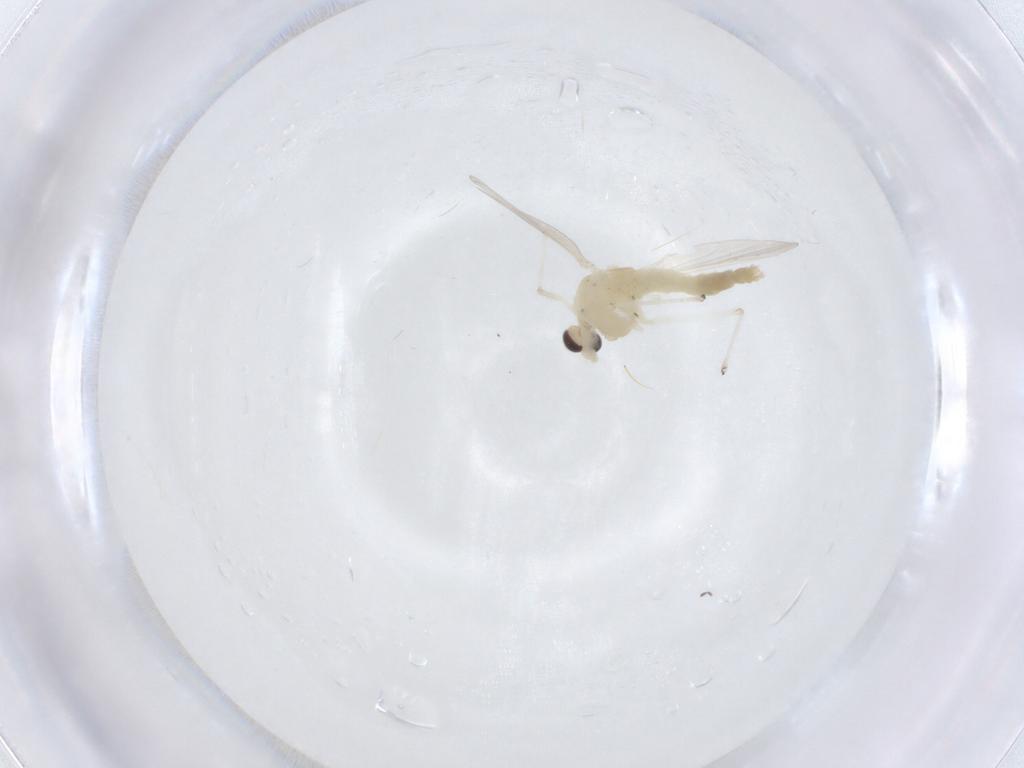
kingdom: Animalia
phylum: Arthropoda
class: Insecta
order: Diptera
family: Chironomidae
